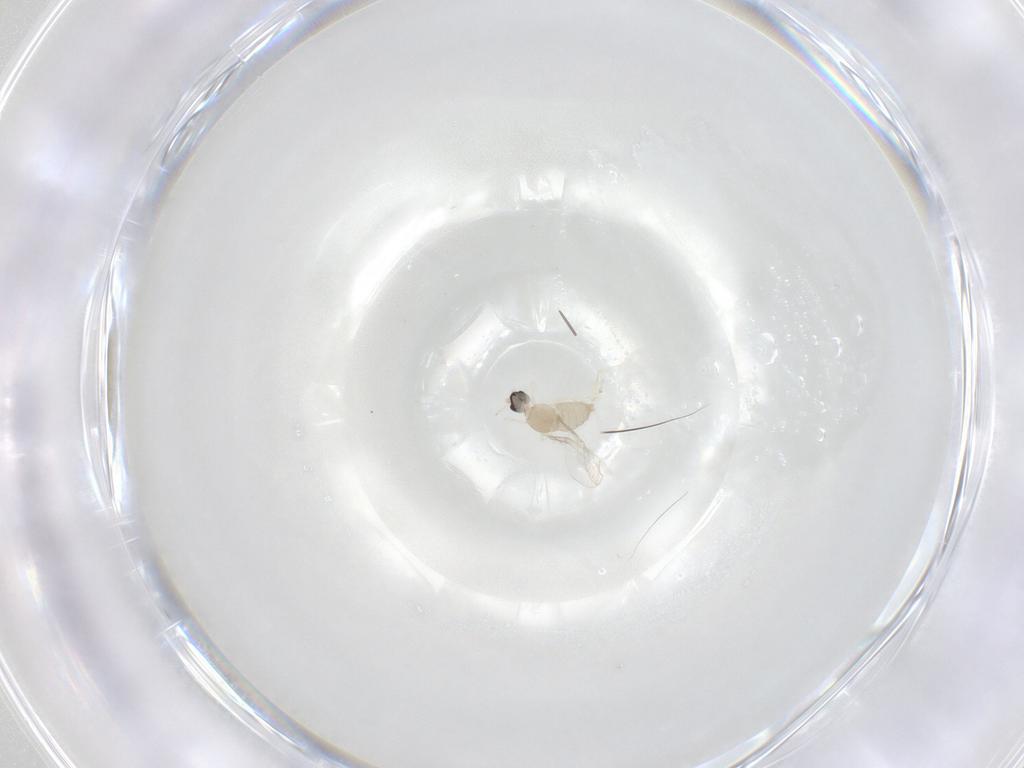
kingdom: Animalia
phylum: Arthropoda
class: Insecta
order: Diptera
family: Cecidomyiidae
